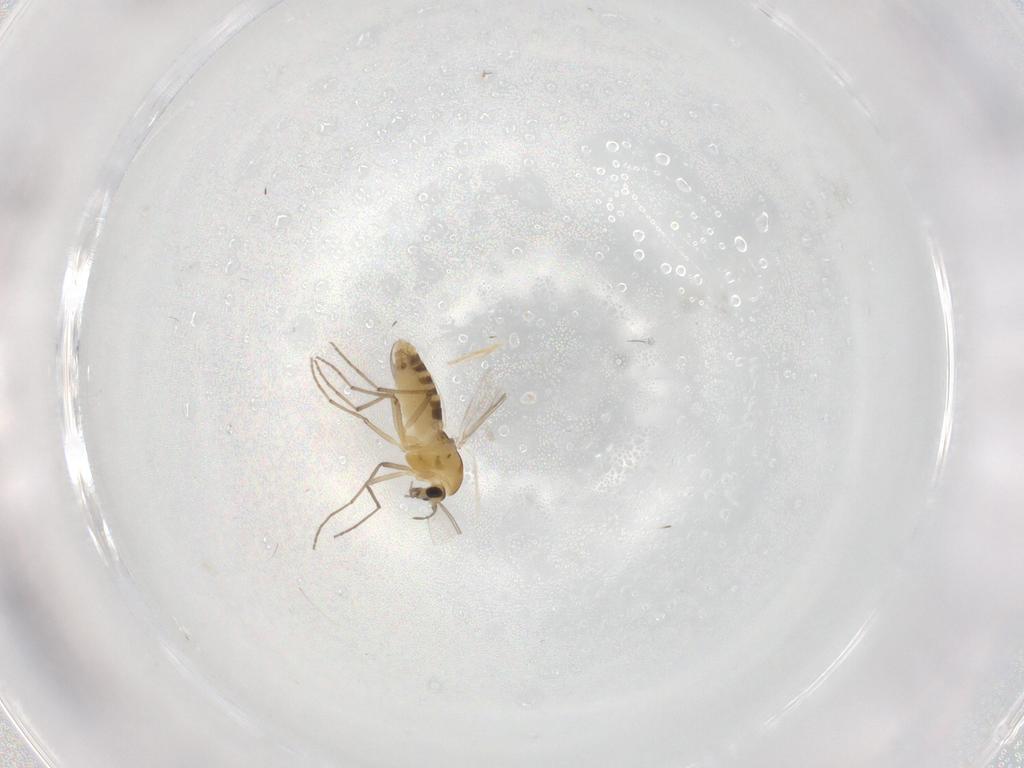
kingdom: Animalia
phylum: Arthropoda
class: Insecta
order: Diptera
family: Chironomidae
